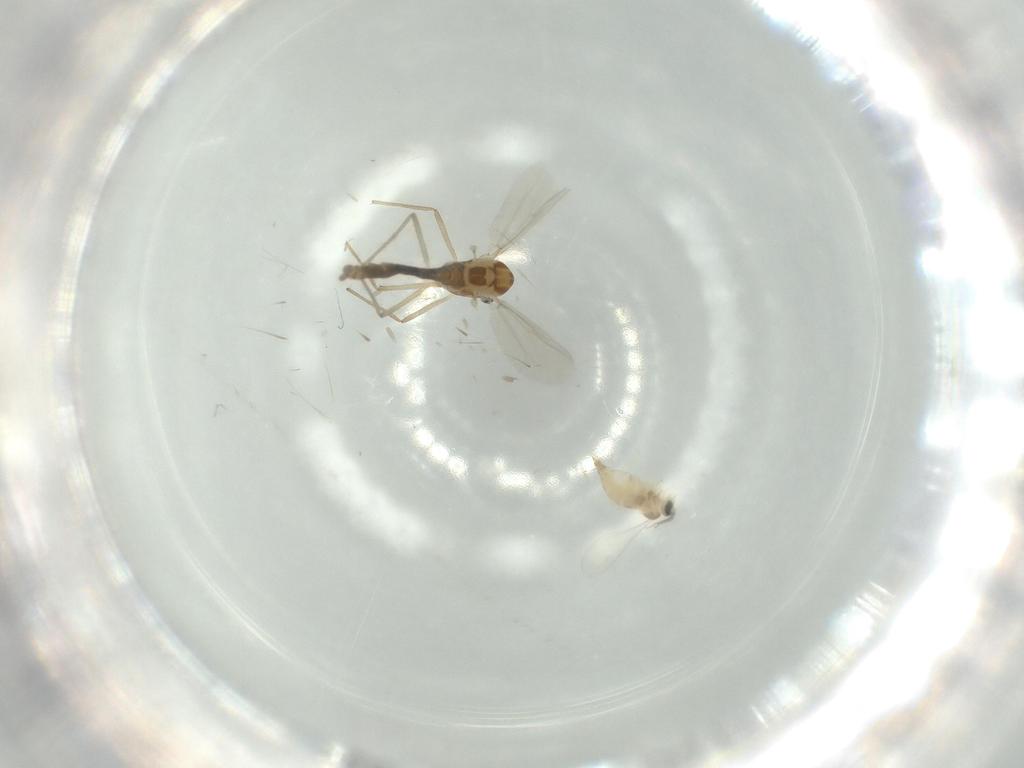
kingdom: Animalia
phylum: Arthropoda
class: Insecta
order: Diptera
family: Chironomidae
